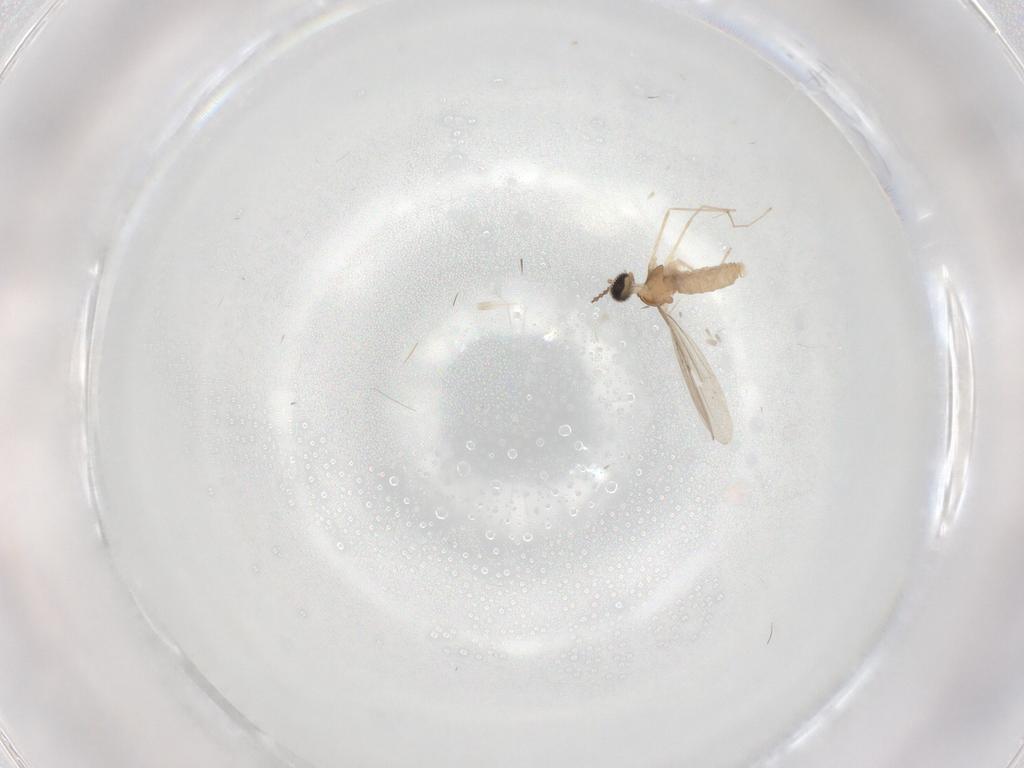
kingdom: Animalia
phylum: Arthropoda
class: Insecta
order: Diptera
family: Cecidomyiidae
